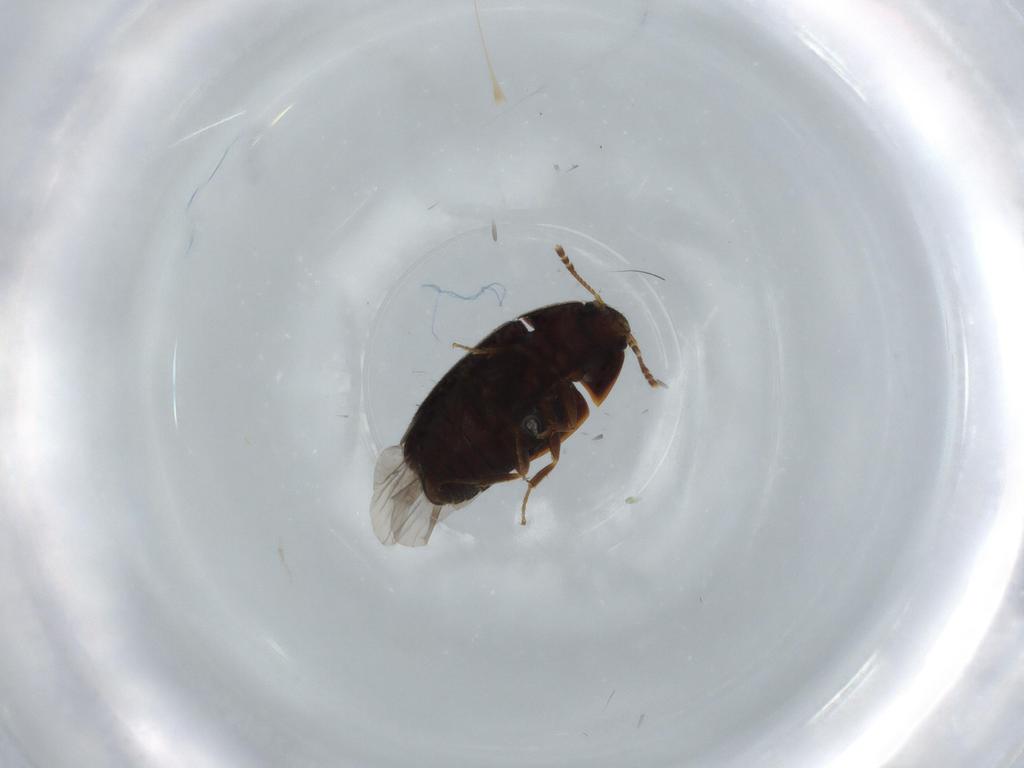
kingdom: Animalia
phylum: Arthropoda
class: Insecta
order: Coleoptera
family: Mycetophagidae
